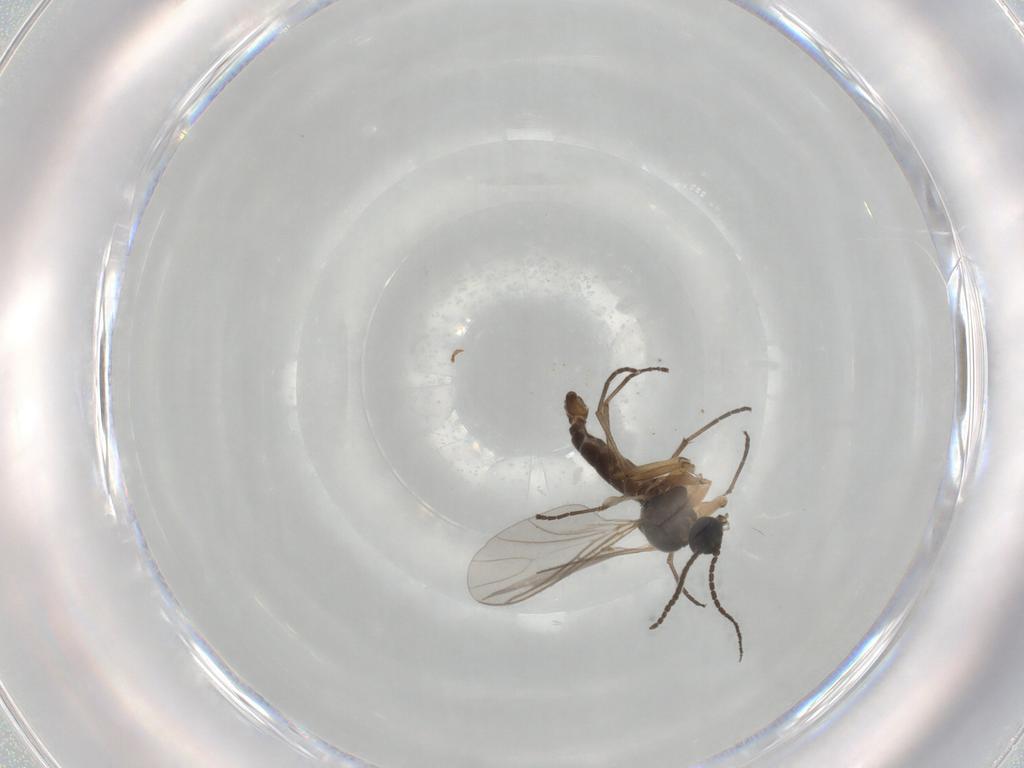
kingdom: Animalia
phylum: Arthropoda
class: Insecta
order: Diptera
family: Sciaridae
